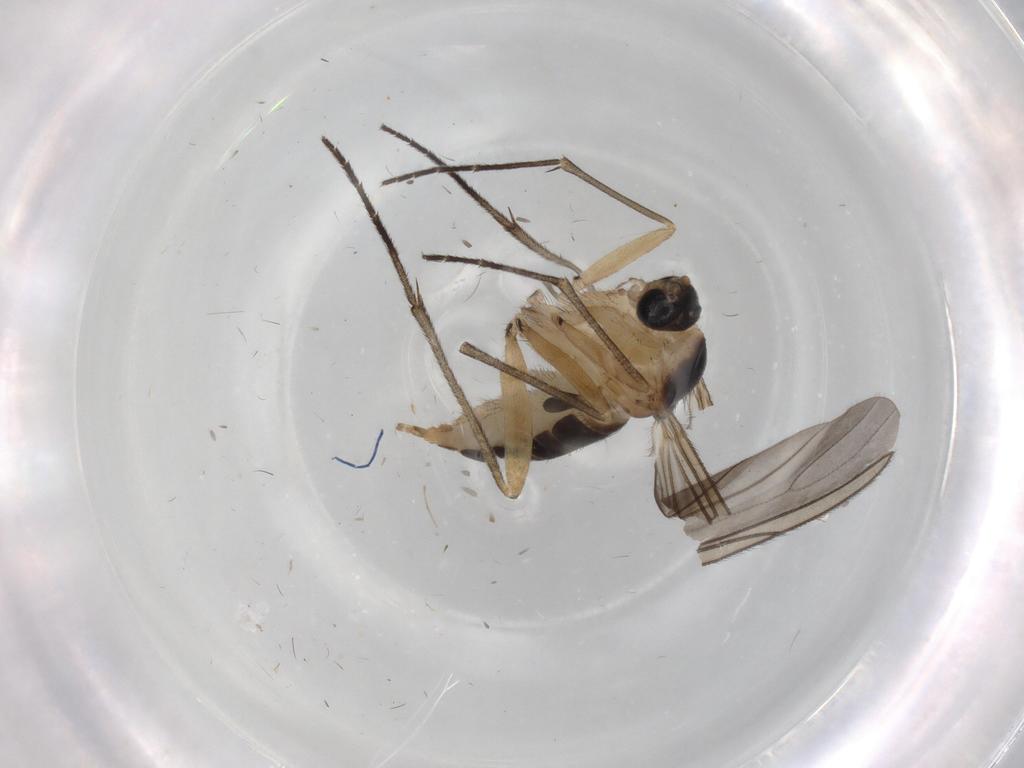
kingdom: Animalia
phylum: Arthropoda
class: Insecta
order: Diptera
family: Sciaridae
